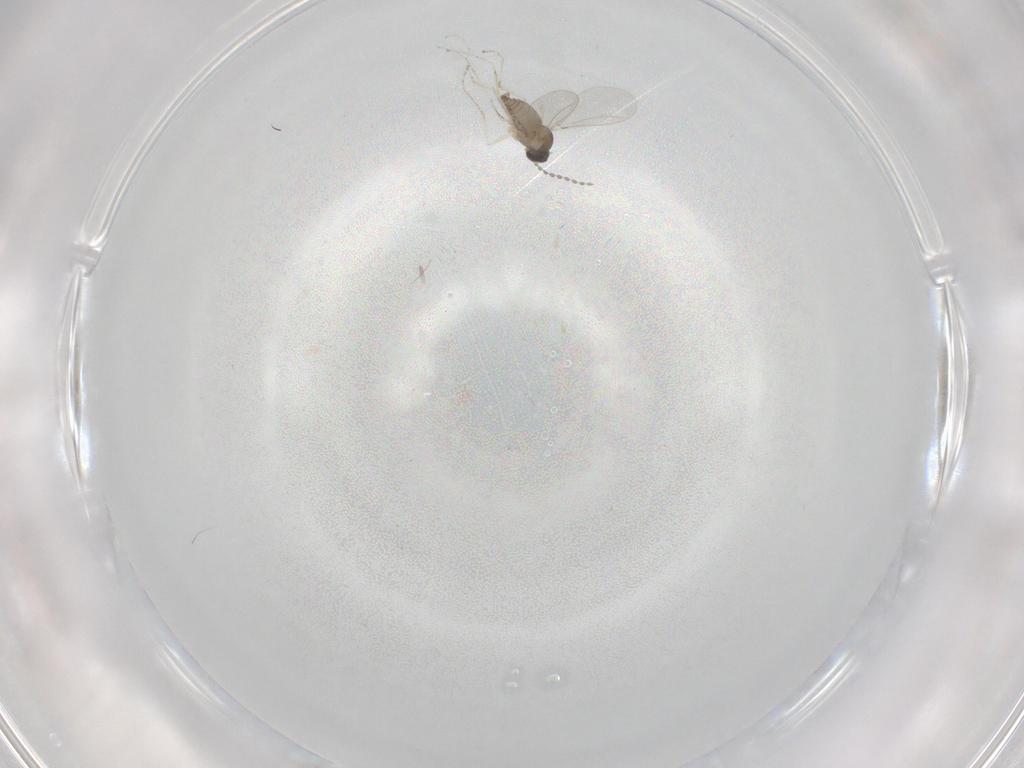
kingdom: Animalia
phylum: Arthropoda
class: Insecta
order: Diptera
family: Cecidomyiidae
